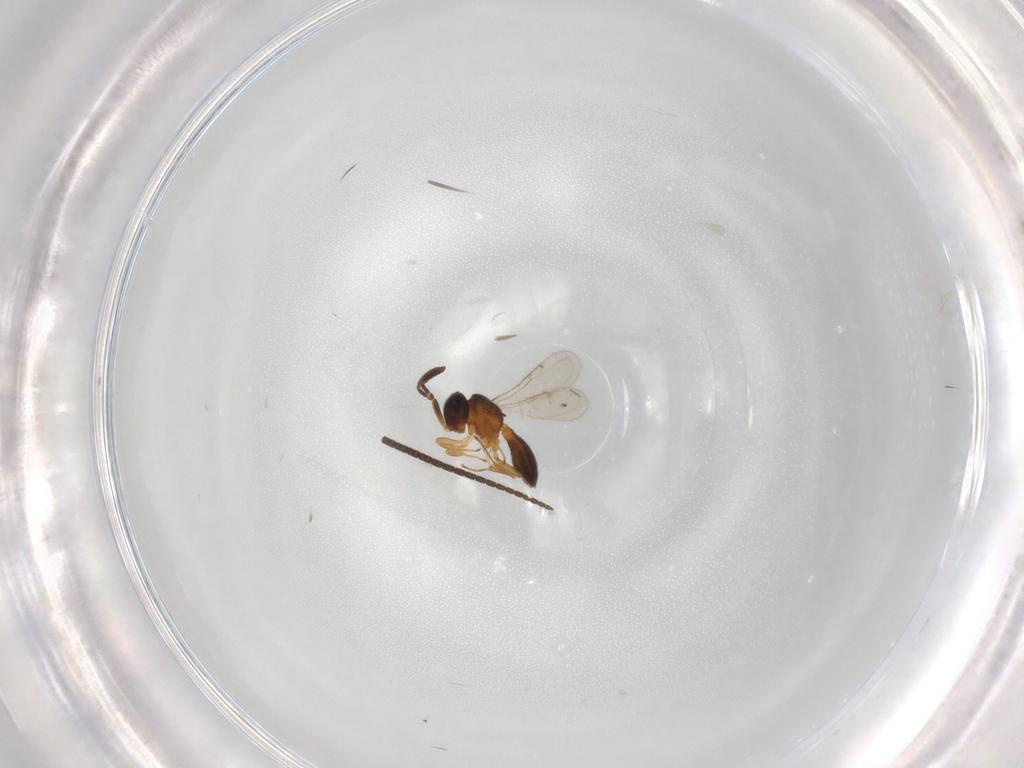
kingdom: Animalia
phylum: Arthropoda
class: Insecta
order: Hymenoptera
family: Scelionidae
